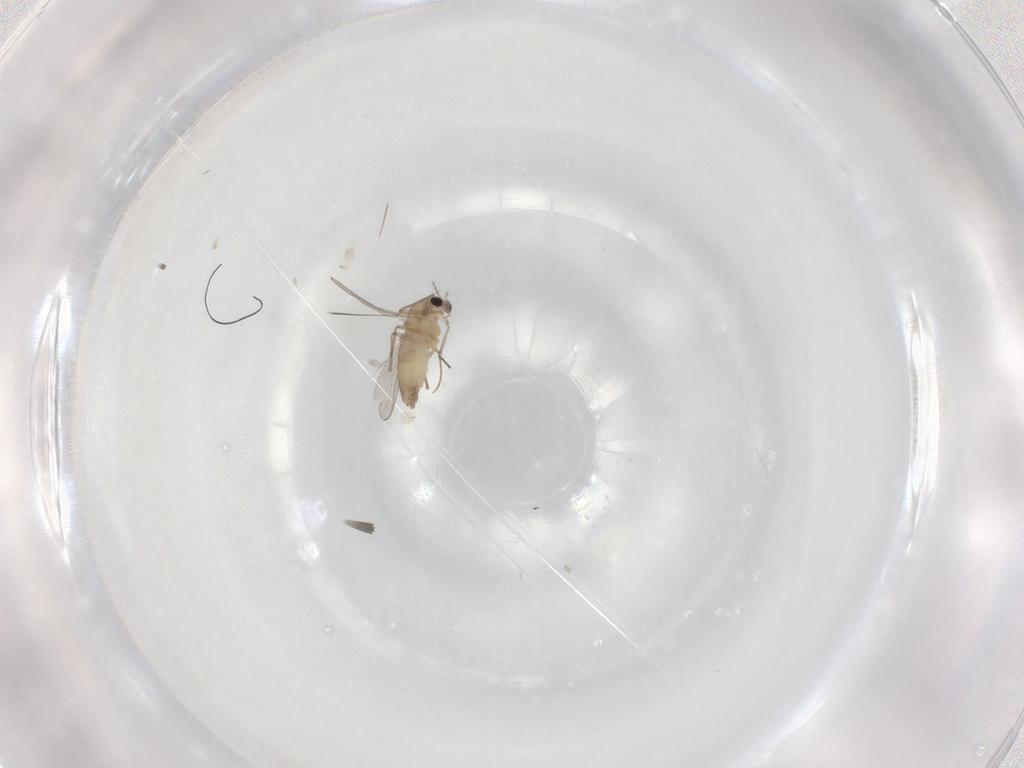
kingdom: Animalia
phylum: Arthropoda
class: Insecta
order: Diptera
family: Chironomidae
